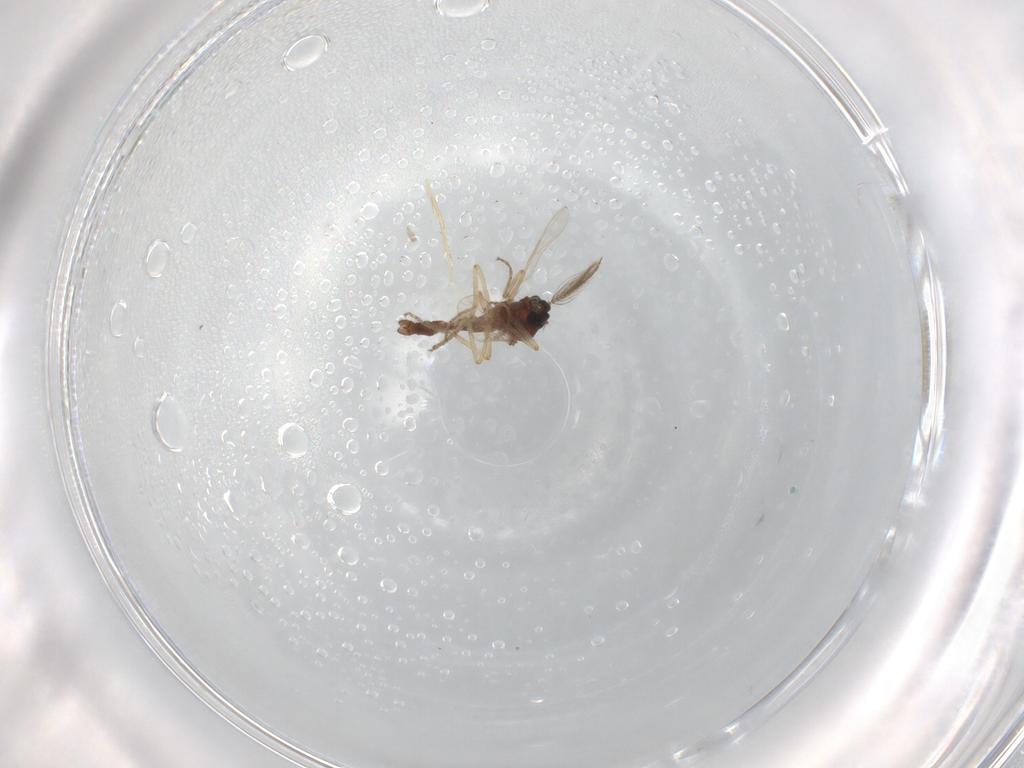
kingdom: Animalia
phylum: Arthropoda
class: Insecta
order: Diptera
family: Ceratopogonidae
